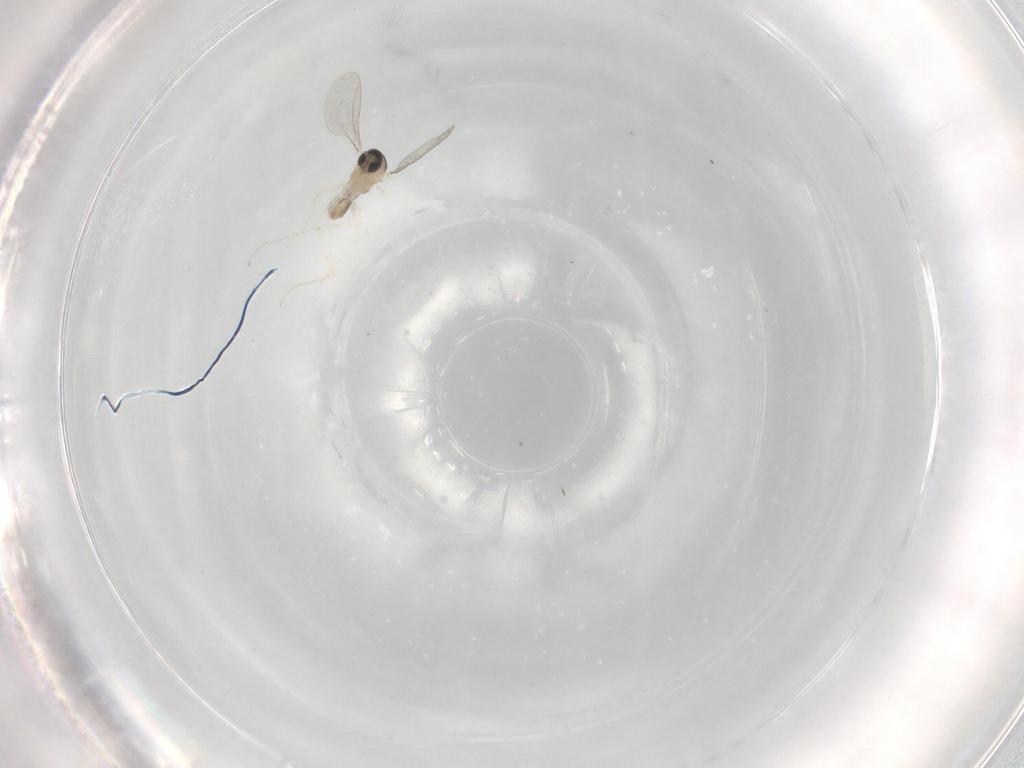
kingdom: Animalia
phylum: Arthropoda
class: Insecta
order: Diptera
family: Cecidomyiidae
